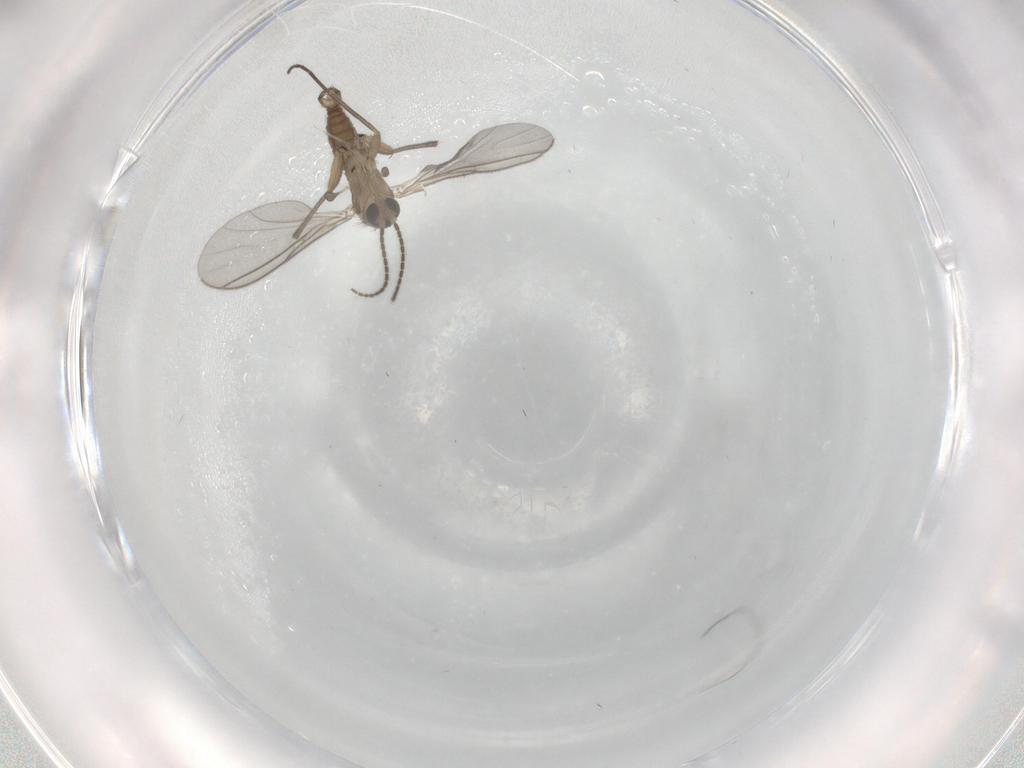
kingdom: Animalia
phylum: Arthropoda
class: Insecta
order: Diptera
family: Sciaridae
